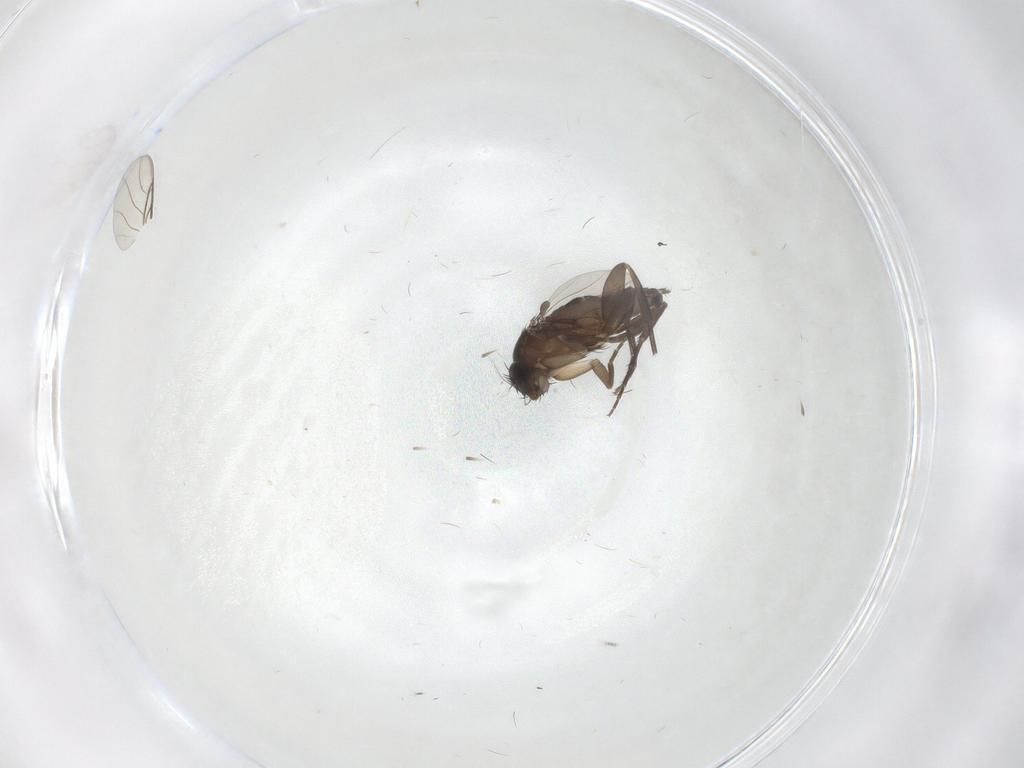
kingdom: Animalia
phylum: Arthropoda
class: Insecta
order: Diptera
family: Phoridae
